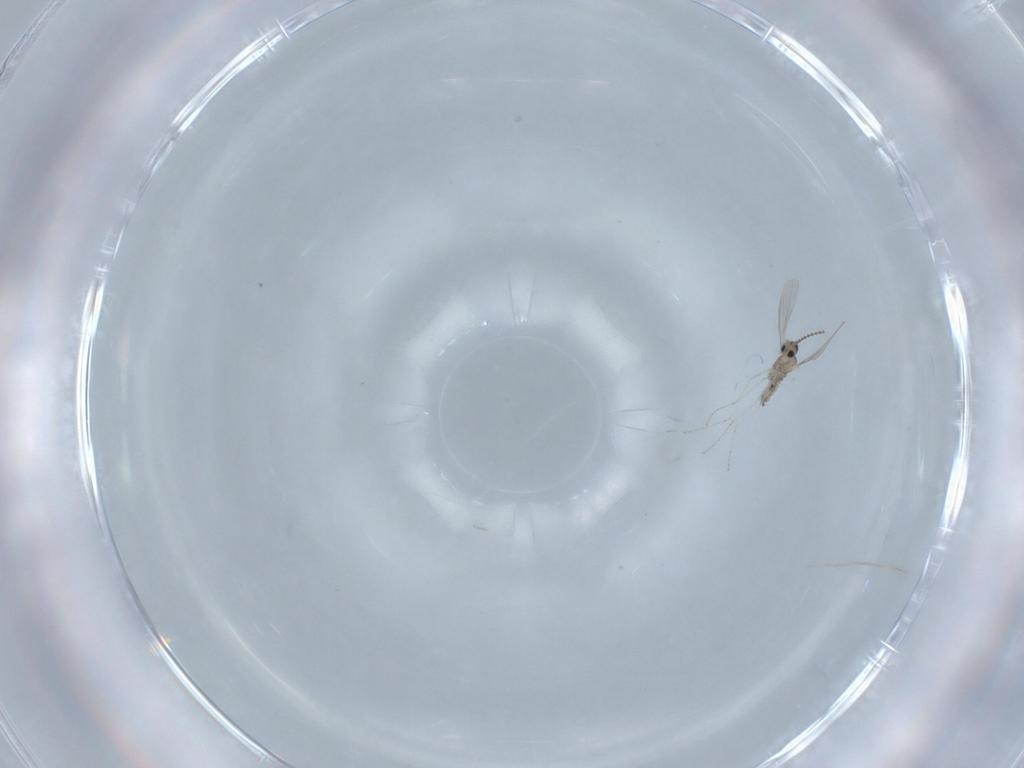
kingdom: Animalia
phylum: Arthropoda
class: Insecta
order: Diptera
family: Cecidomyiidae
